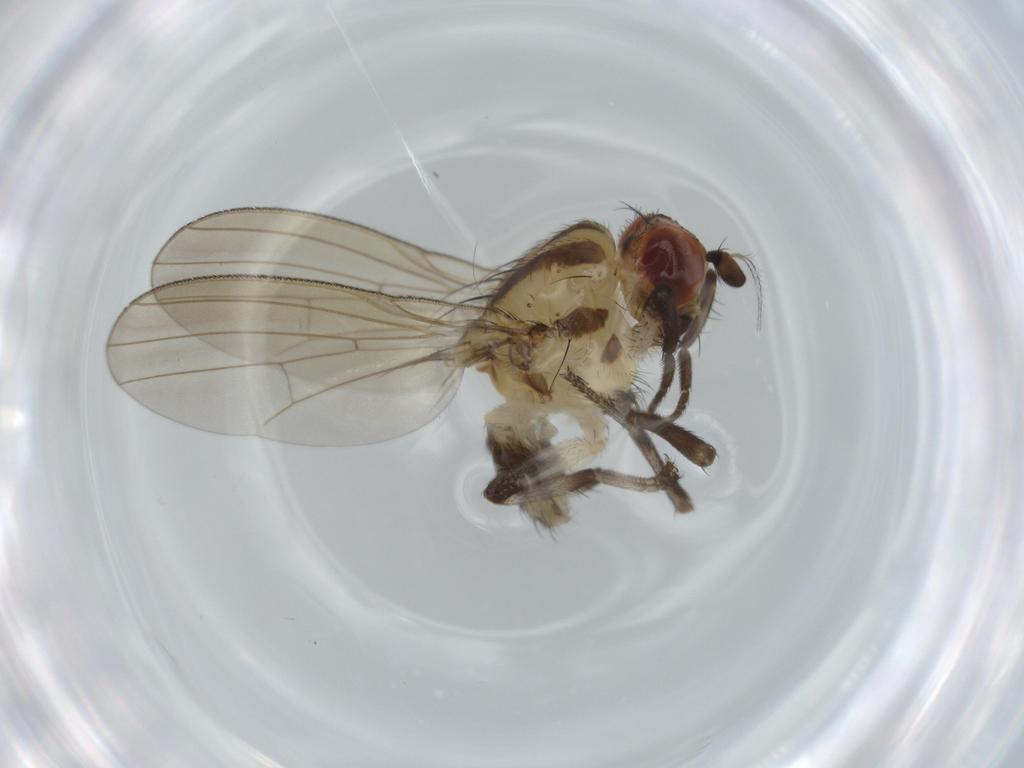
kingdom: Animalia
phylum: Arthropoda
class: Insecta
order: Diptera
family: Lauxaniidae
